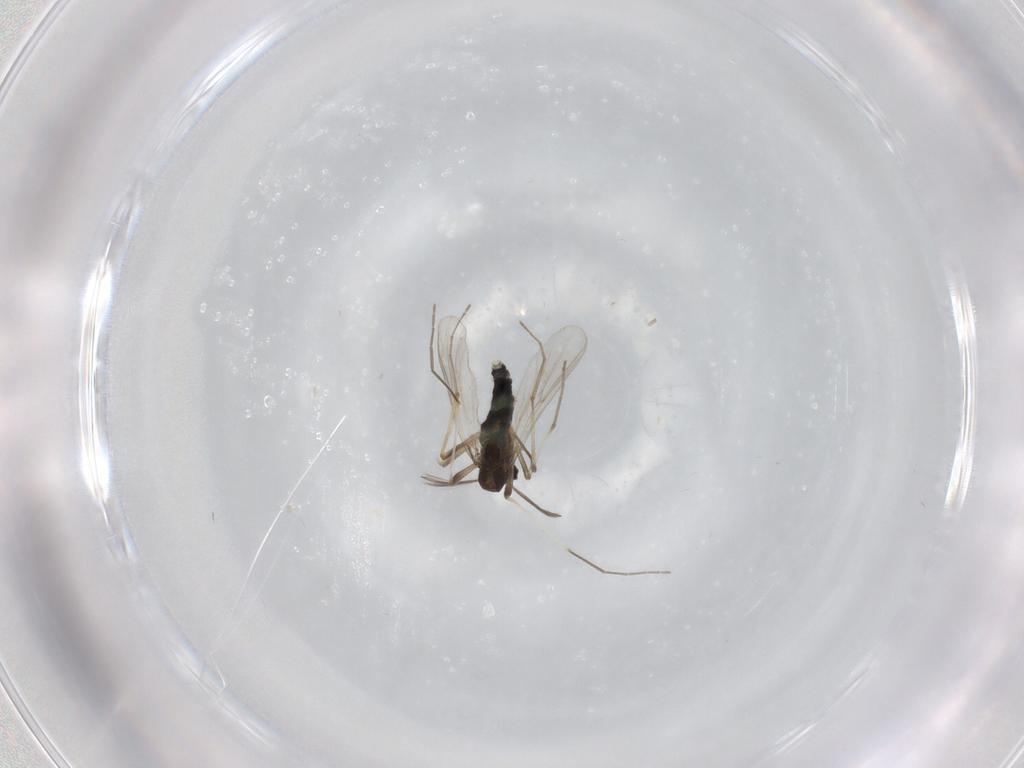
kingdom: Animalia
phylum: Arthropoda
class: Insecta
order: Diptera
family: Chironomidae
